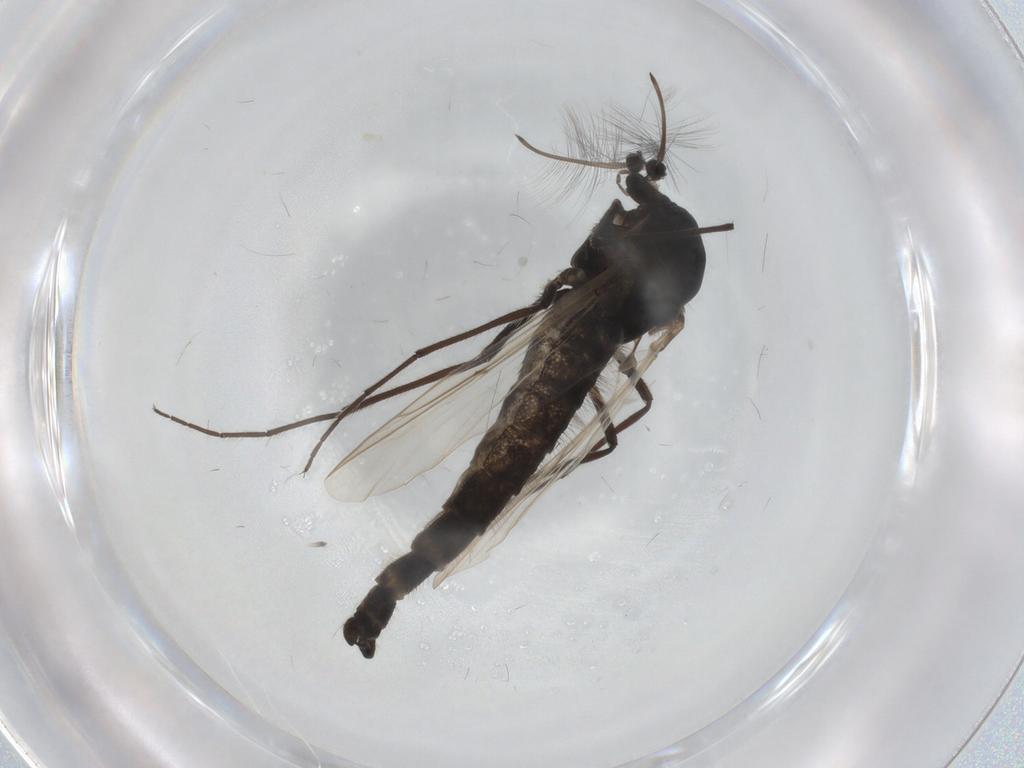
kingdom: Animalia
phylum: Arthropoda
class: Insecta
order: Diptera
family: Chironomidae
